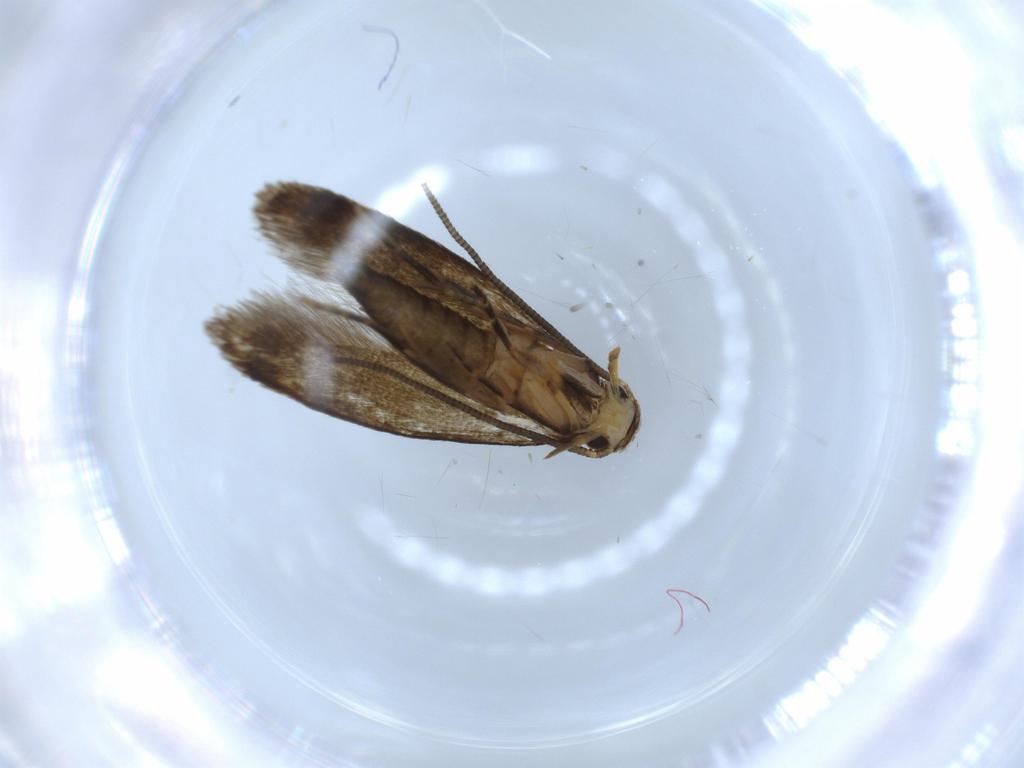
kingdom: Animalia
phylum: Arthropoda
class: Insecta
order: Lepidoptera
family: Tineidae
